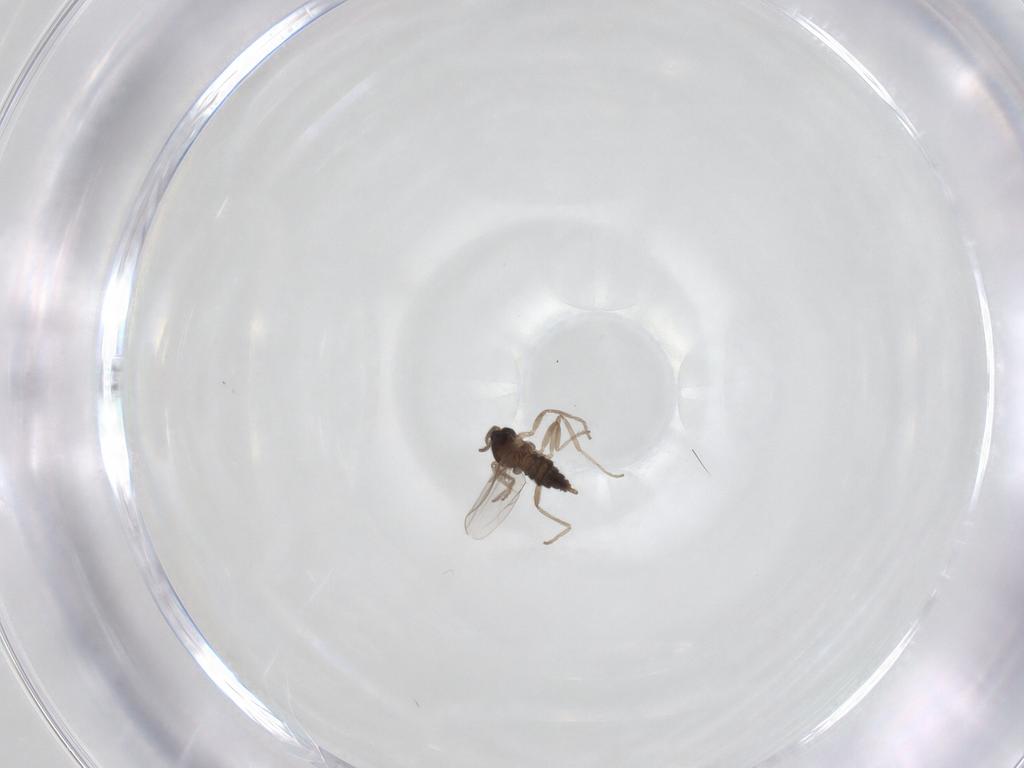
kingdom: Animalia
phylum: Arthropoda
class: Insecta
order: Diptera
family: Cecidomyiidae
